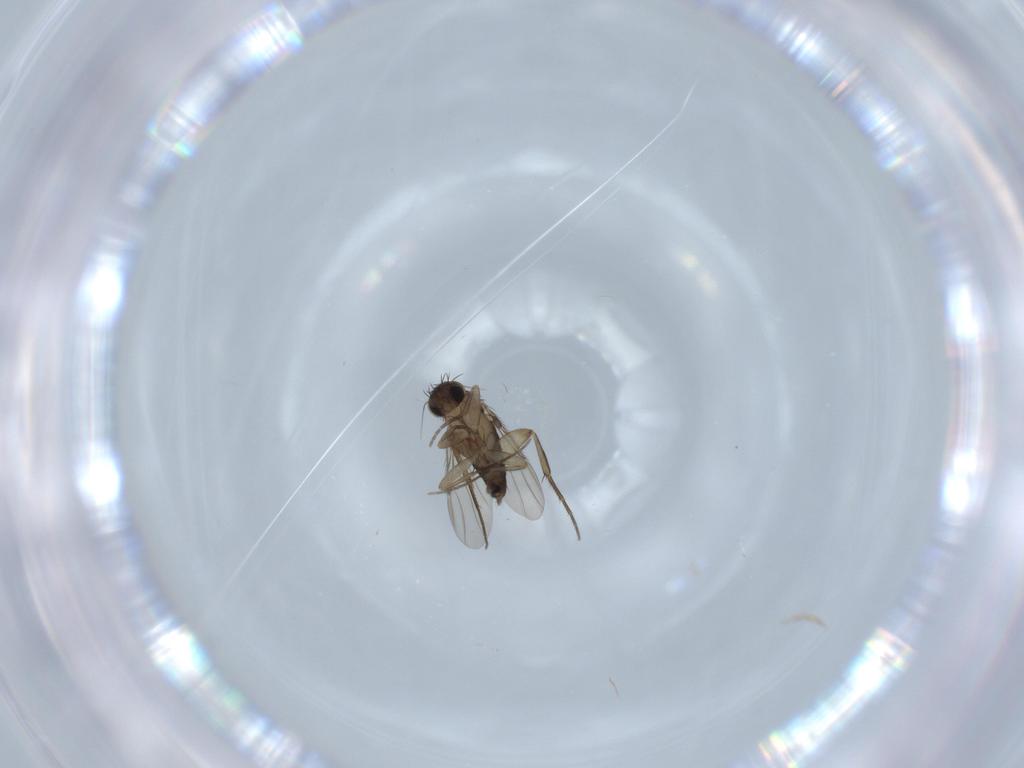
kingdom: Animalia
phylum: Arthropoda
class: Insecta
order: Diptera
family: Phoridae
